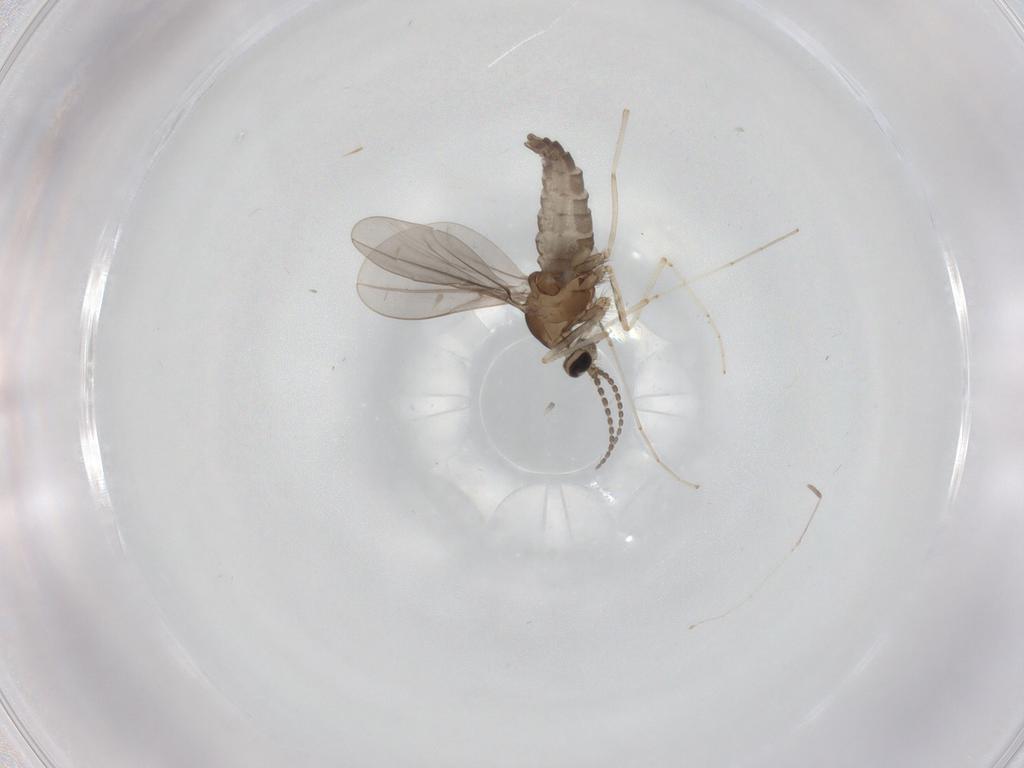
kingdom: Animalia
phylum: Arthropoda
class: Insecta
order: Diptera
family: Cecidomyiidae
